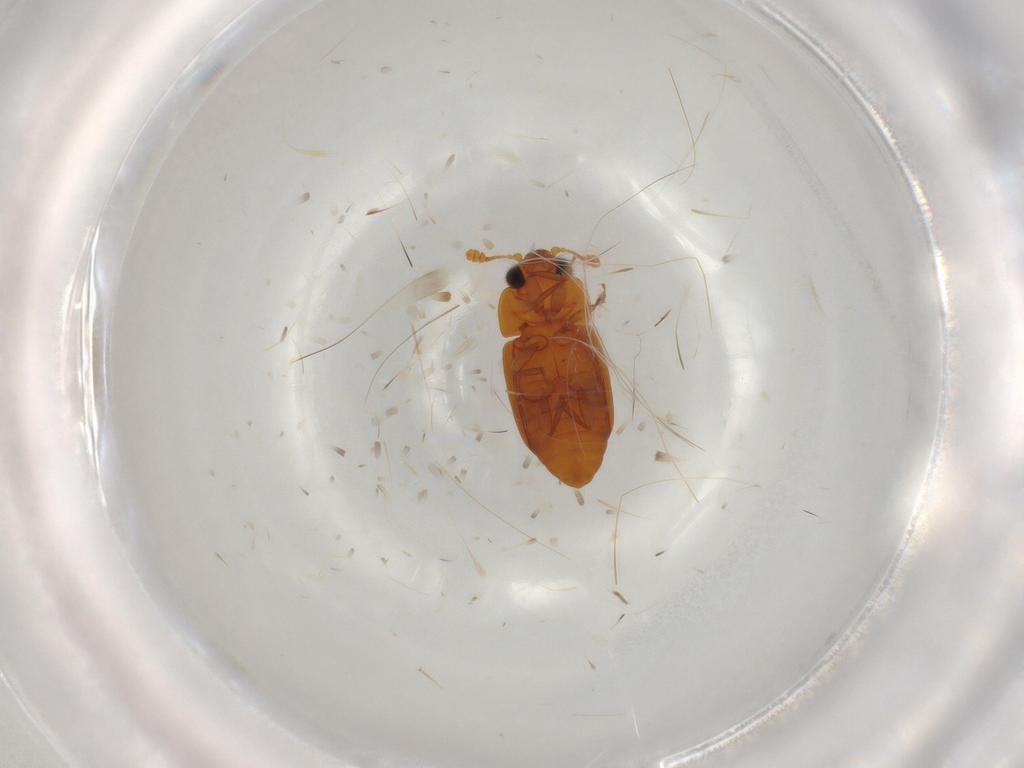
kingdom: Animalia
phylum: Arthropoda
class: Insecta
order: Coleoptera
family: Nitidulidae
